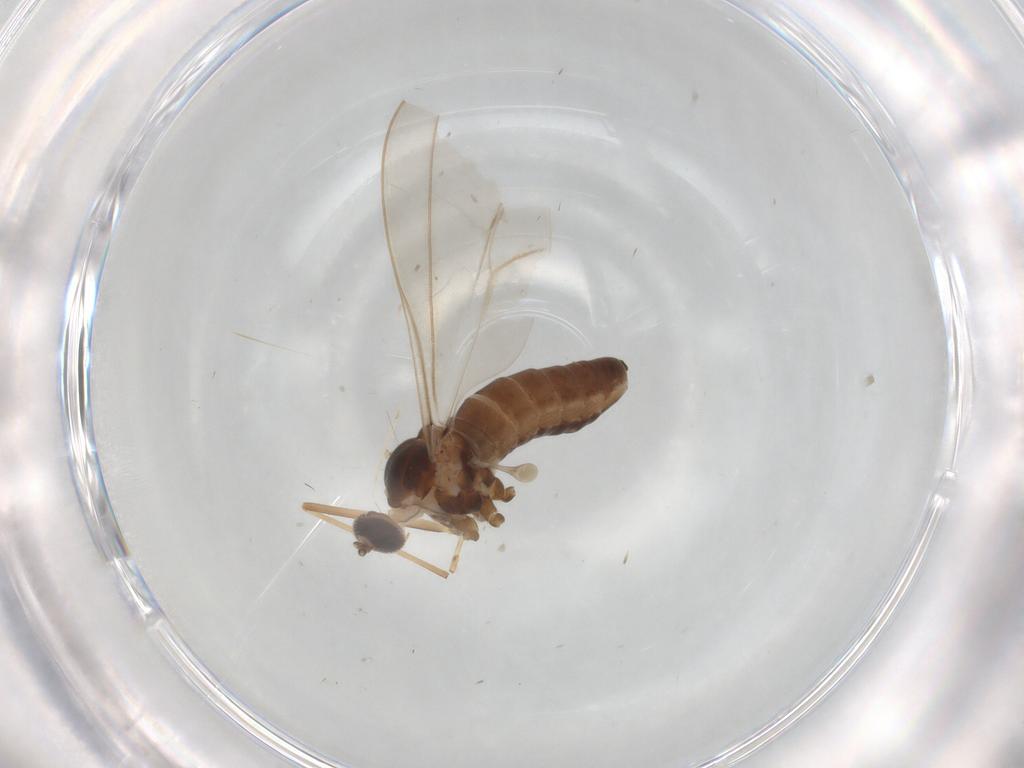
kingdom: Animalia
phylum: Arthropoda
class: Insecta
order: Diptera
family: Cecidomyiidae
